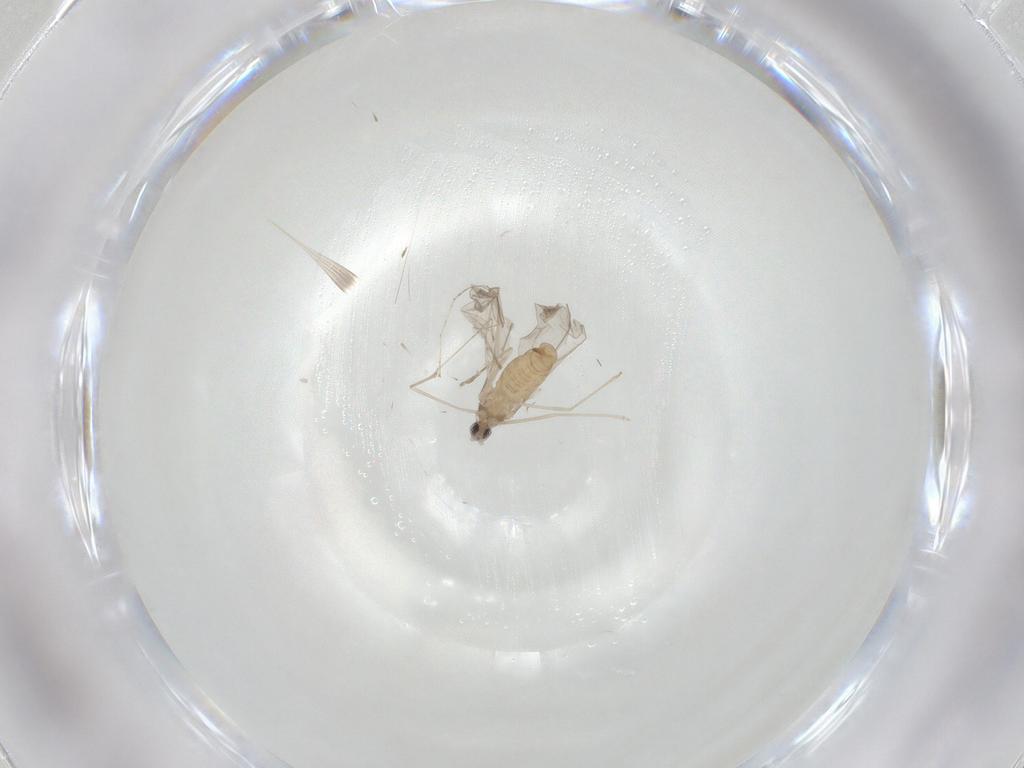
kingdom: Animalia
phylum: Arthropoda
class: Insecta
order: Diptera
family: Cecidomyiidae
